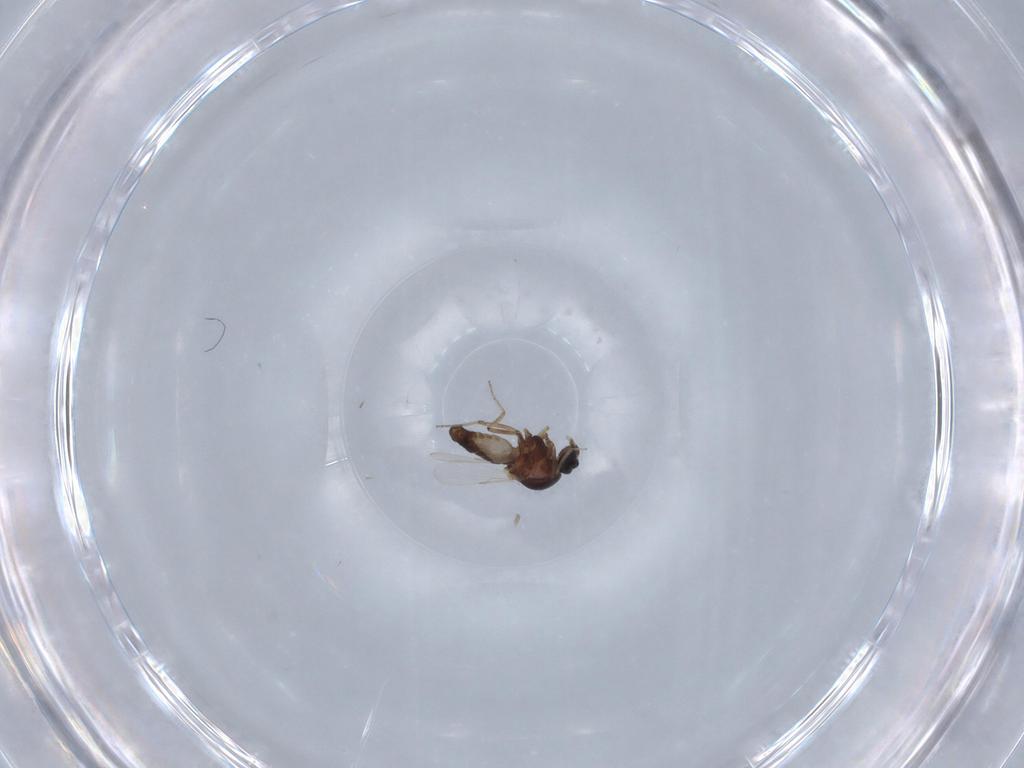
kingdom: Animalia
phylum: Arthropoda
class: Insecta
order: Diptera
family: Ceratopogonidae
